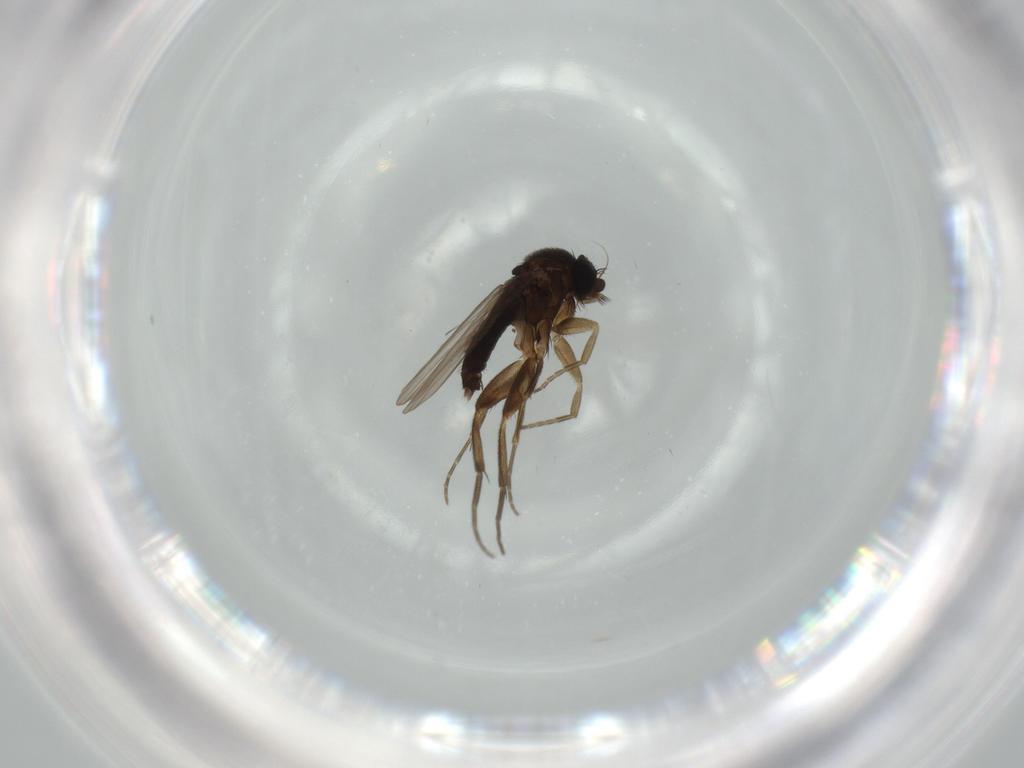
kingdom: Animalia
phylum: Arthropoda
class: Insecta
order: Diptera
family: Phoridae
